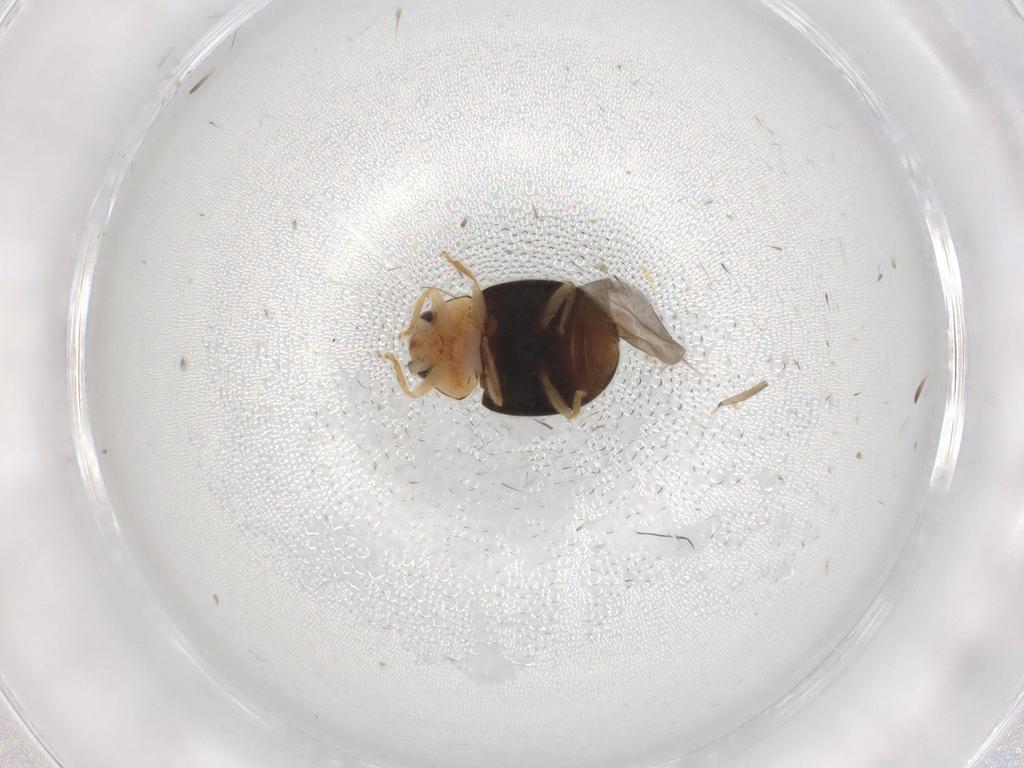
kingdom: Animalia
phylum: Arthropoda
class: Insecta
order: Coleoptera
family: Coccinellidae
